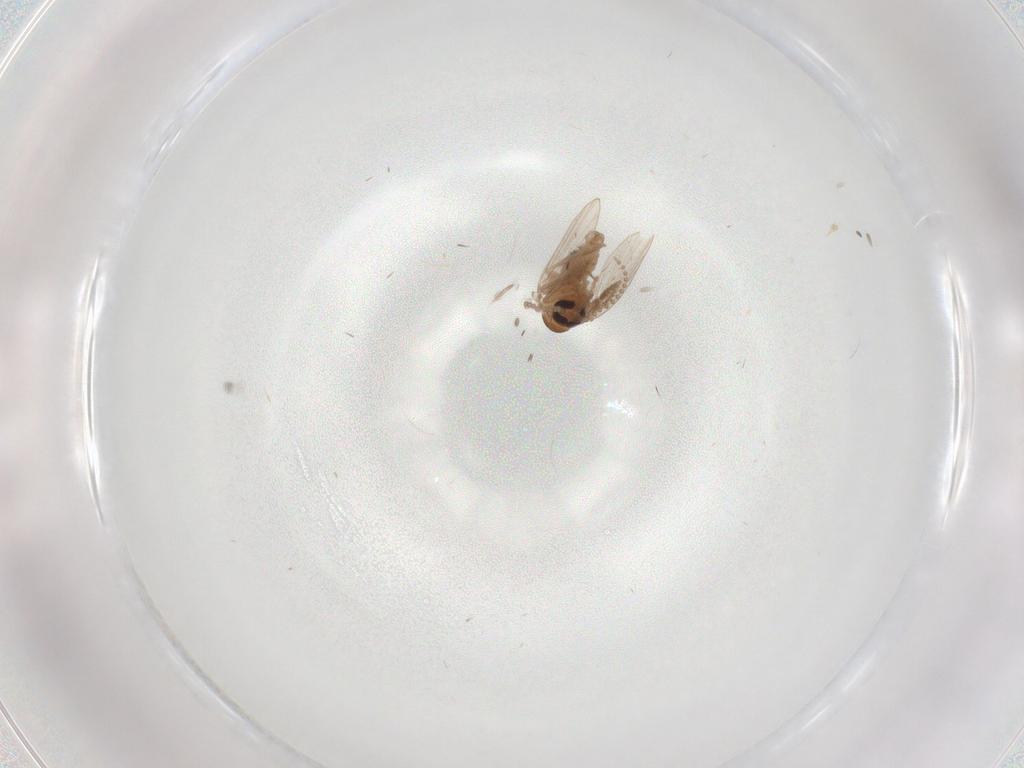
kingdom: Animalia
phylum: Arthropoda
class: Insecta
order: Diptera
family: Psychodidae
